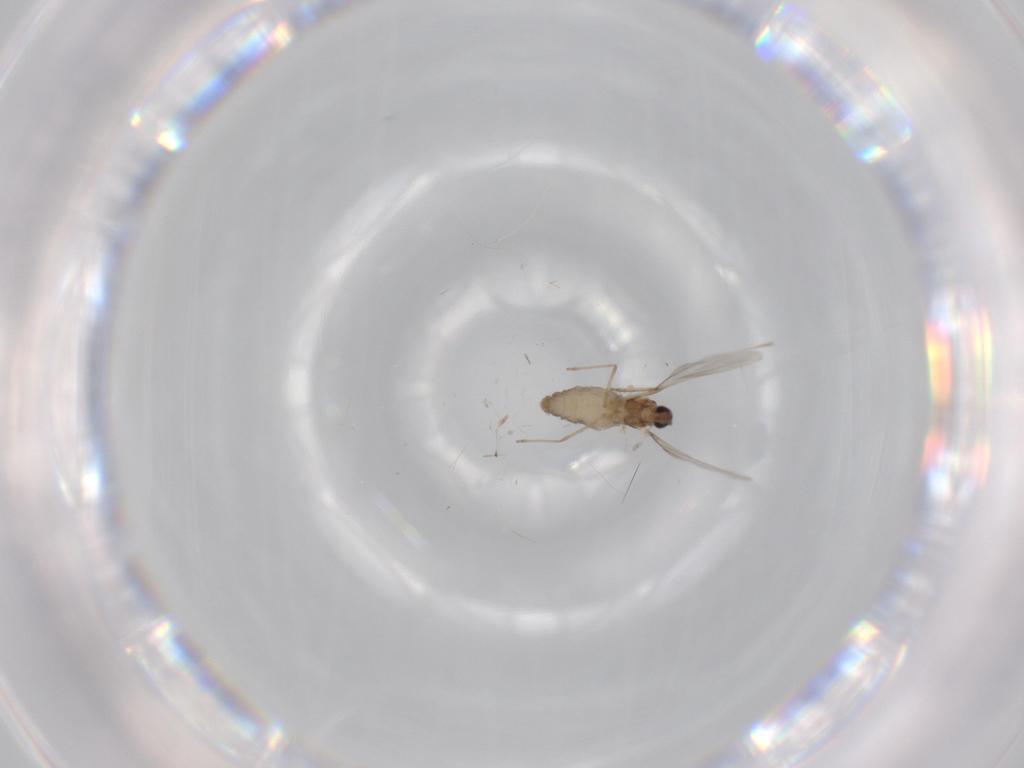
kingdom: Animalia
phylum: Arthropoda
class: Insecta
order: Diptera
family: Cecidomyiidae
